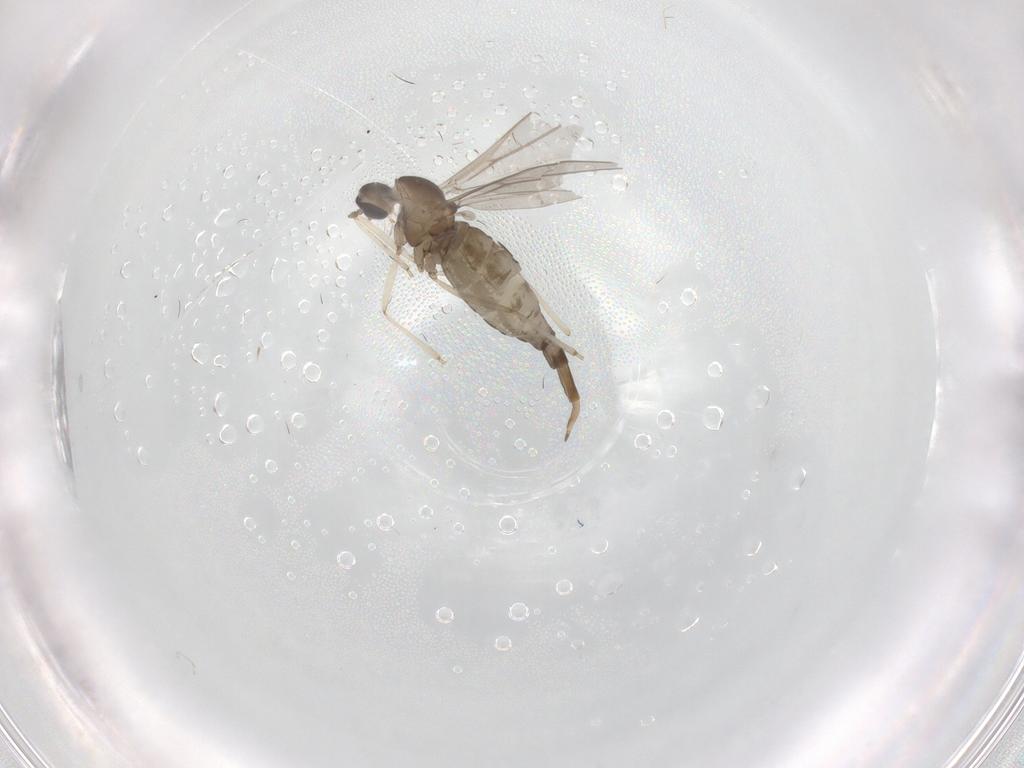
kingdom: Animalia
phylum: Arthropoda
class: Insecta
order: Diptera
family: Cecidomyiidae
